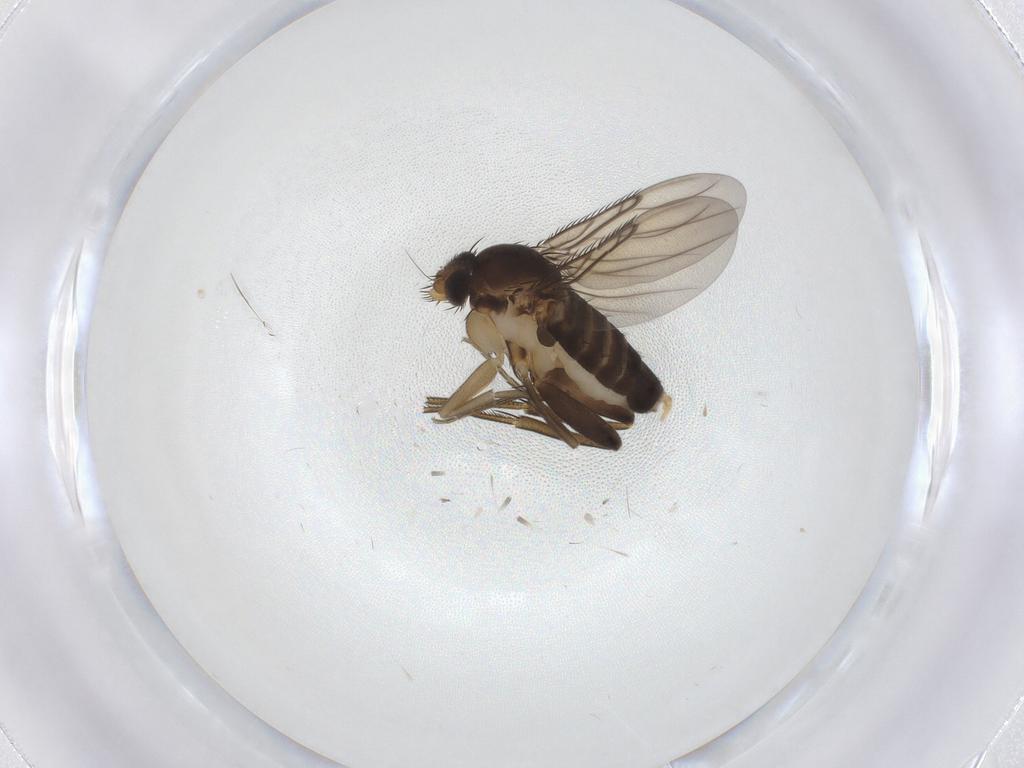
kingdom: Animalia
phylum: Arthropoda
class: Insecta
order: Diptera
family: Phoridae
